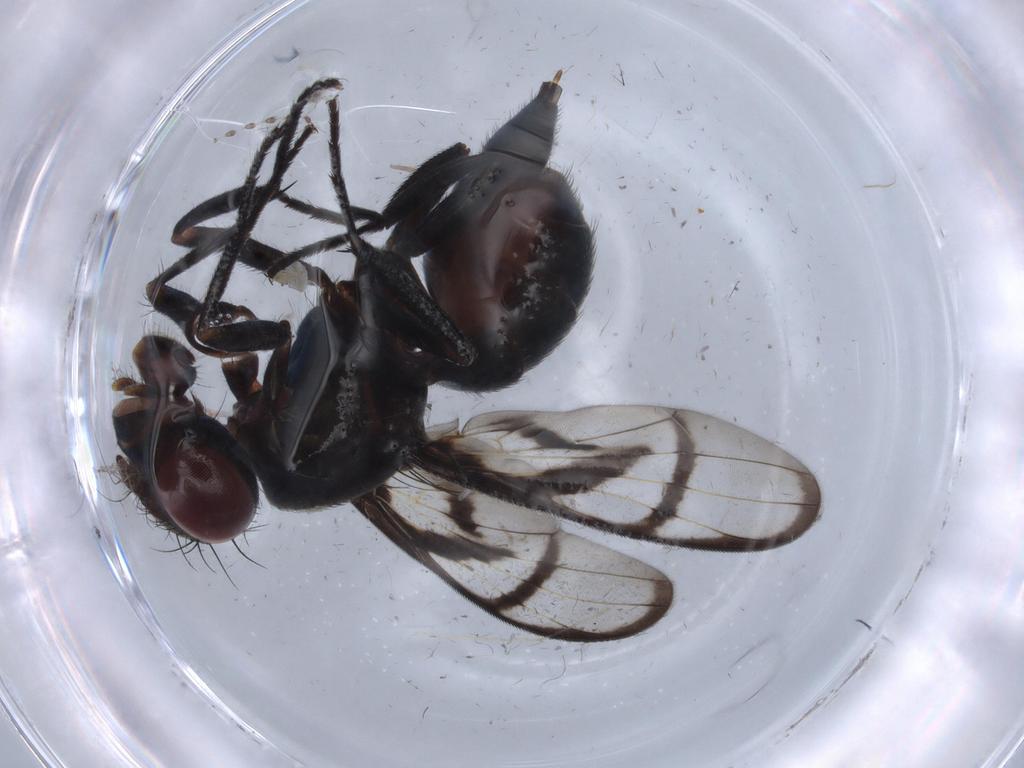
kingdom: Animalia
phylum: Arthropoda
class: Insecta
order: Diptera
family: Ulidiidae
